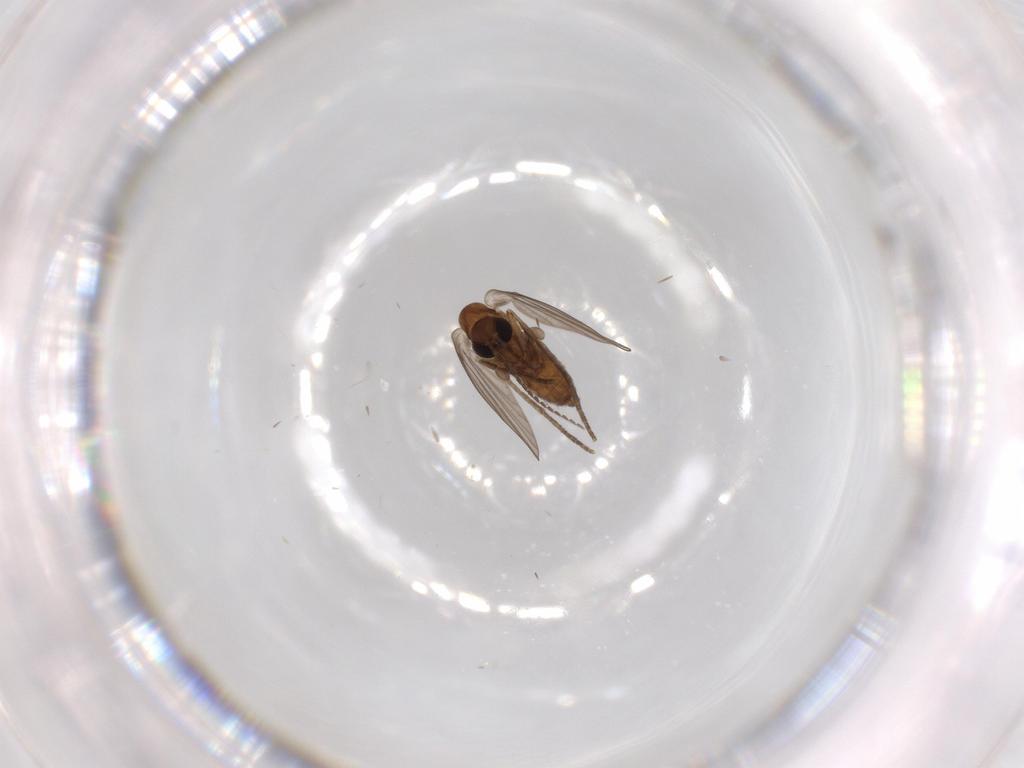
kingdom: Animalia
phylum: Arthropoda
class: Insecta
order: Diptera
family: Psychodidae
